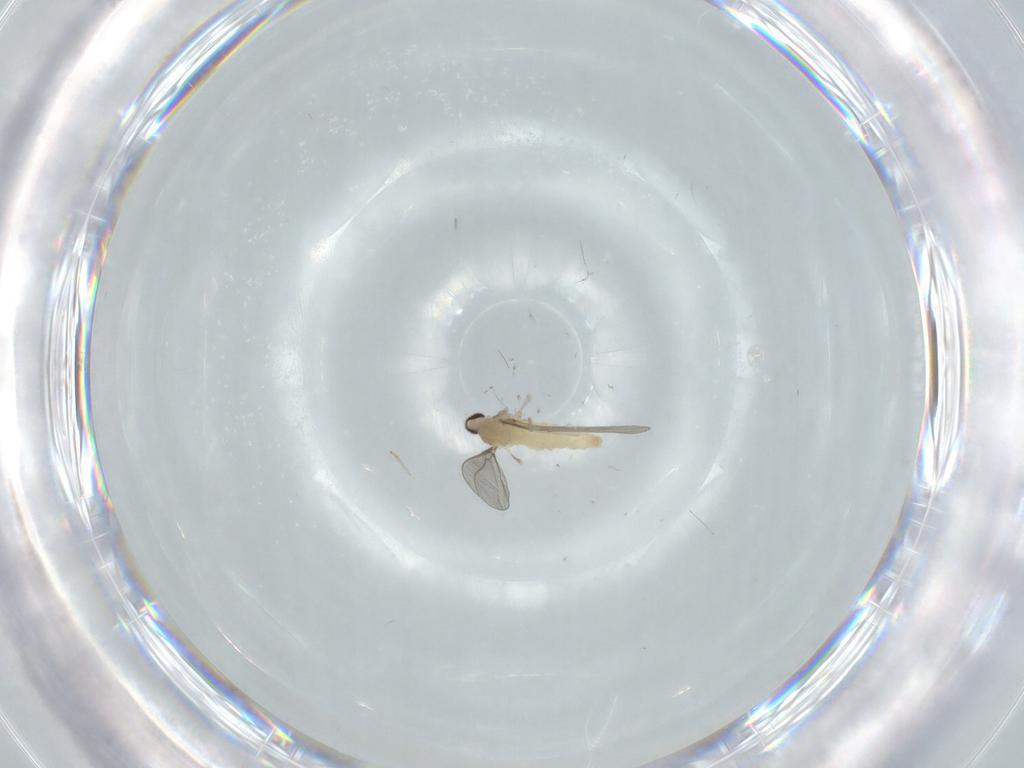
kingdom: Animalia
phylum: Arthropoda
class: Insecta
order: Diptera
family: Cecidomyiidae
